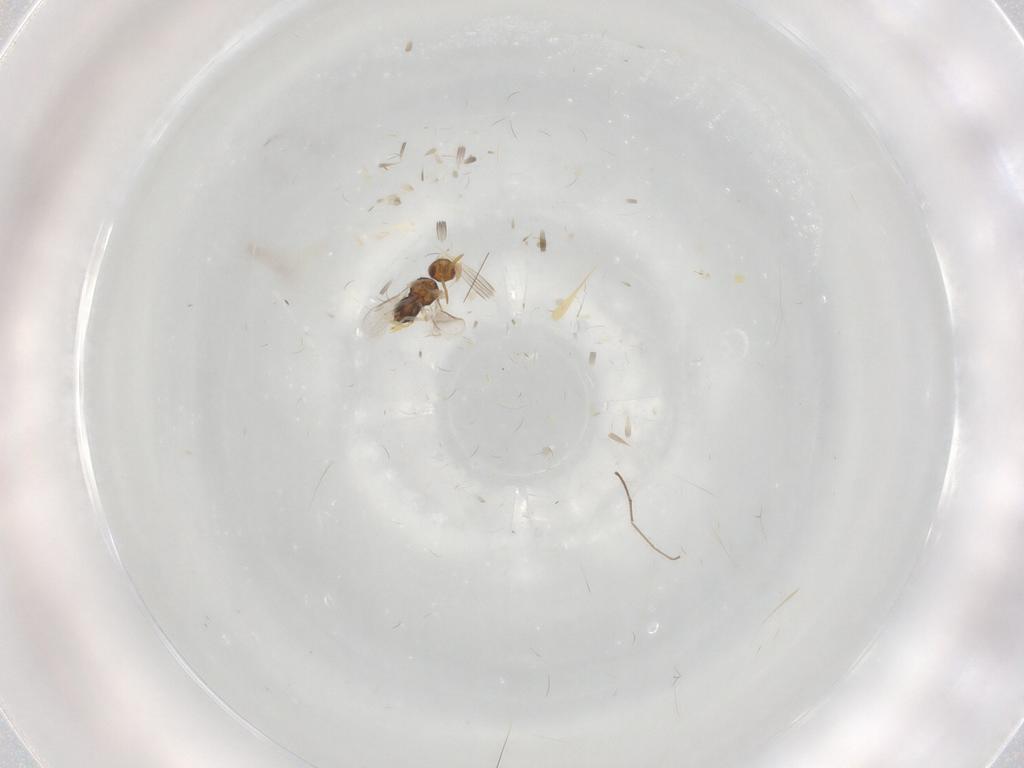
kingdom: Animalia
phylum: Arthropoda
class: Insecta
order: Hymenoptera
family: Aphelinidae
